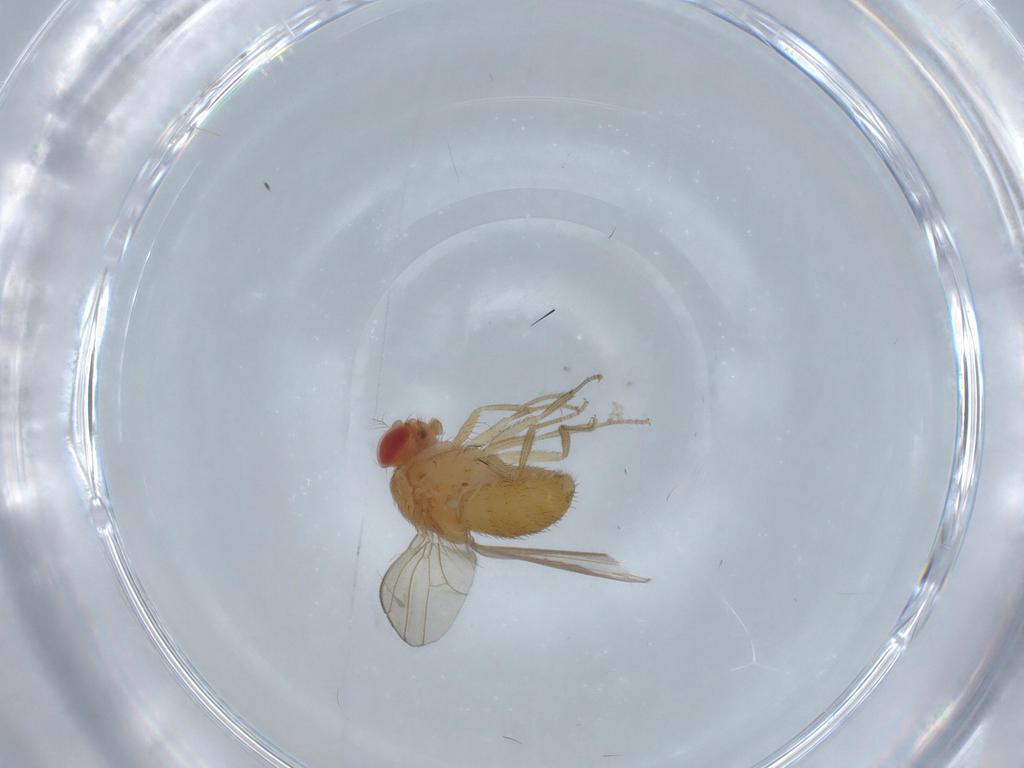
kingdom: Animalia
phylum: Arthropoda
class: Insecta
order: Diptera
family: Drosophilidae
